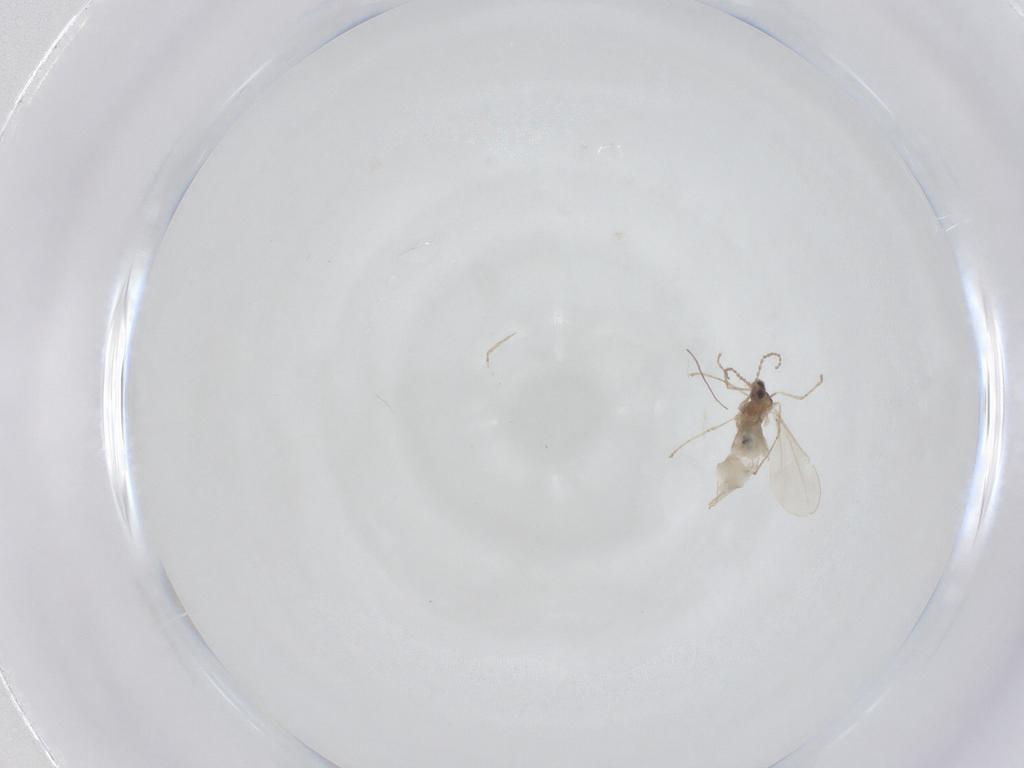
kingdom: Animalia
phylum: Arthropoda
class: Insecta
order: Diptera
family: Cecidomyiidae
